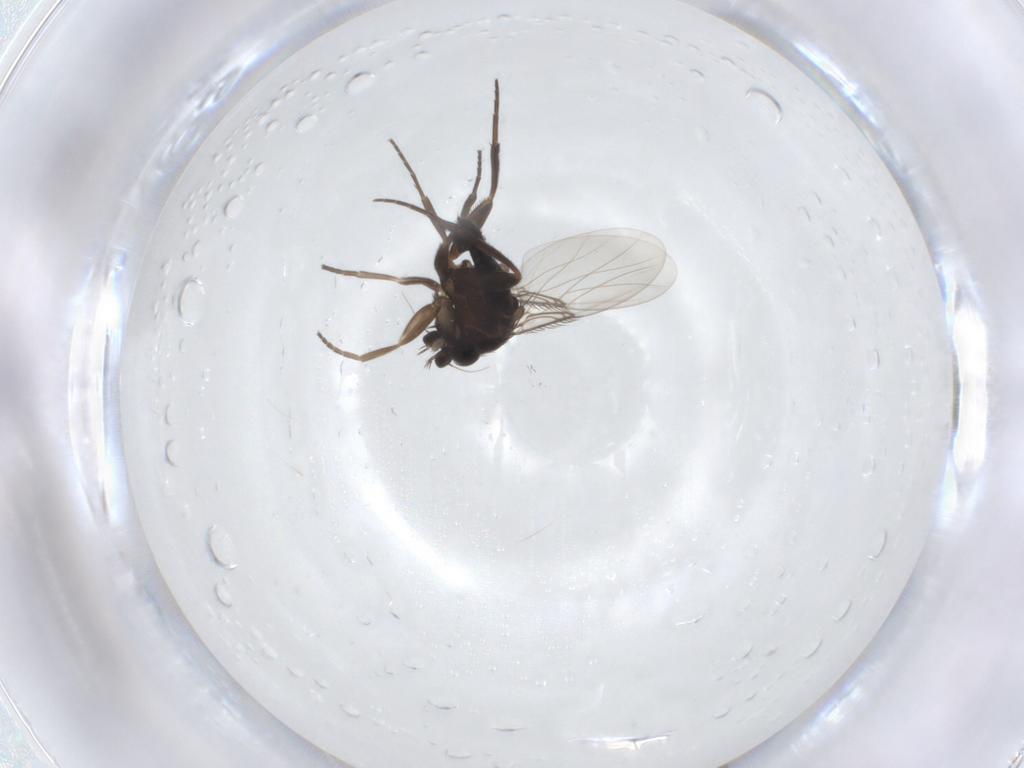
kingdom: Animalia
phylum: Arthropoda
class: Insecta
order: Diptera
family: Phoridae
